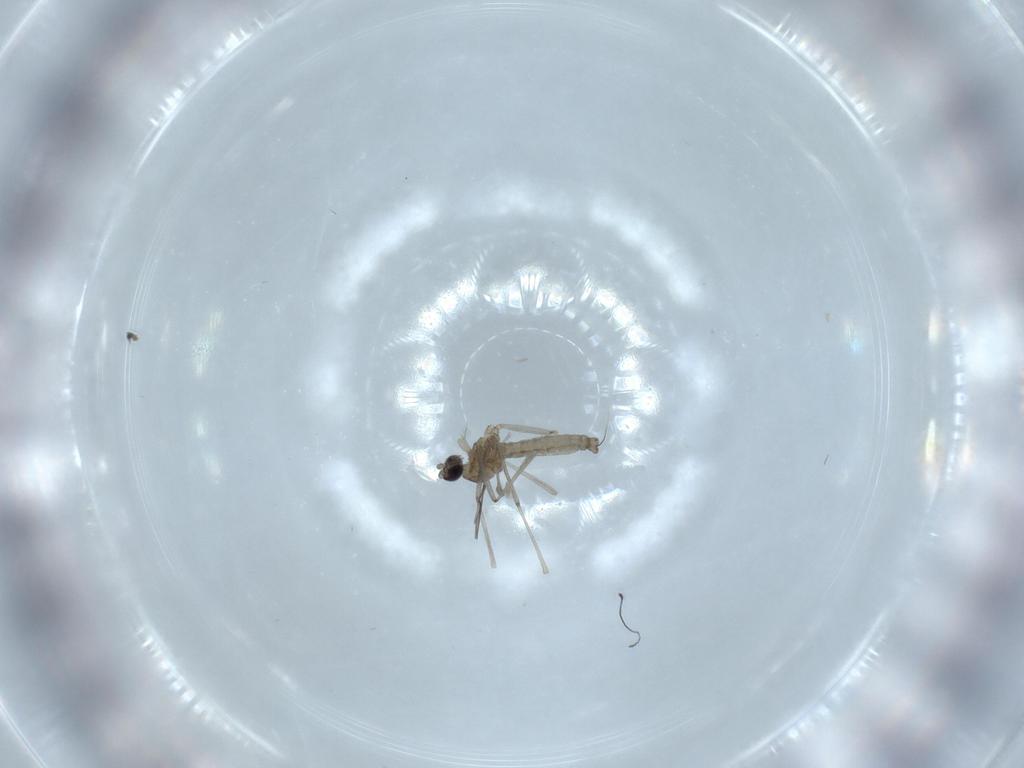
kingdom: Animalia
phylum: Arthropoda
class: Insecta
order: Diptera
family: Cecidomyiidae
